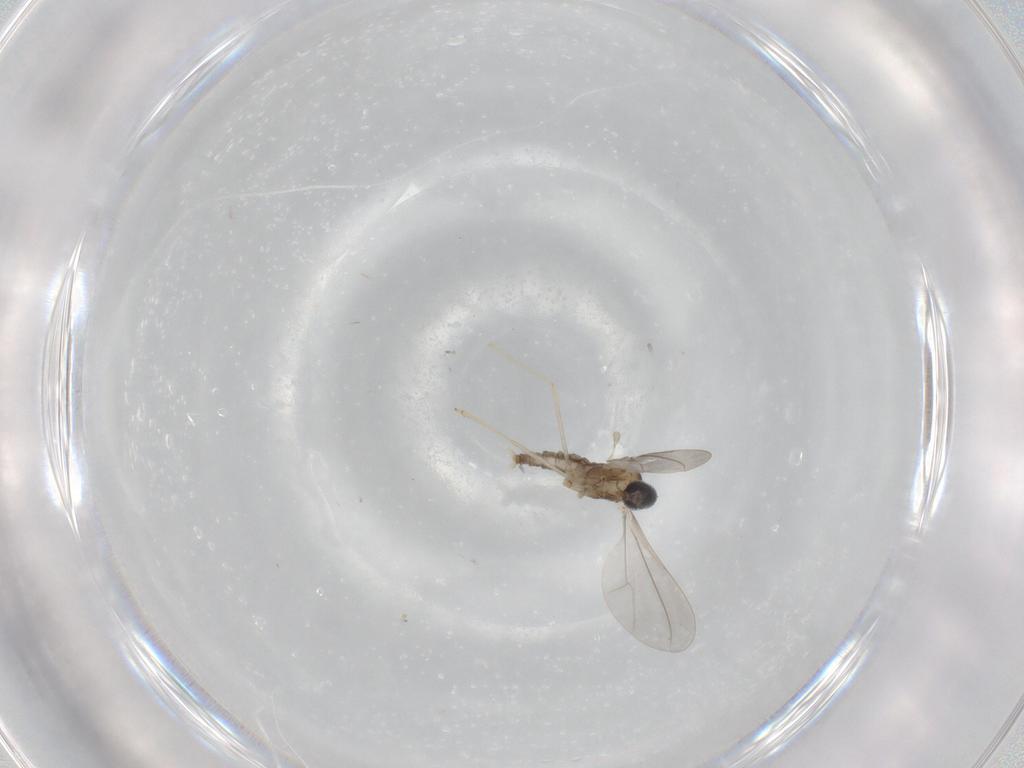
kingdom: Animalia
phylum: Arthropoda
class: Insecta
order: Diptera
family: Cecidomyiidae
